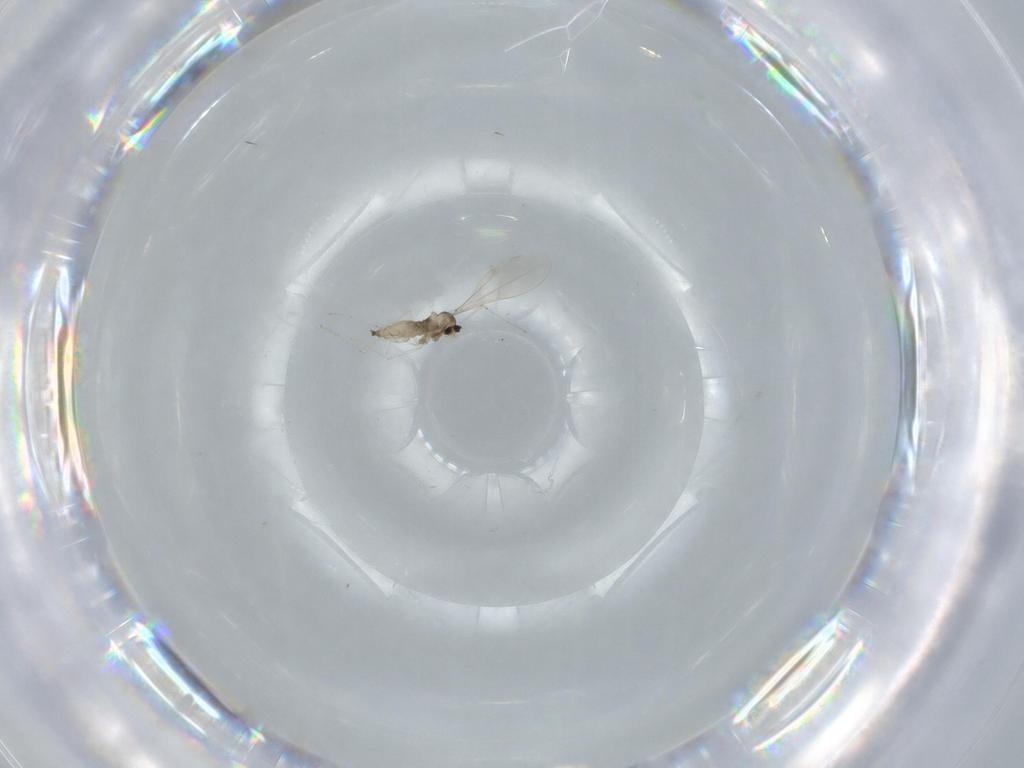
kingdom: Animalia
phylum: Arthropoda
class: Insecta
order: Diptera
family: Cecidomyiidae
